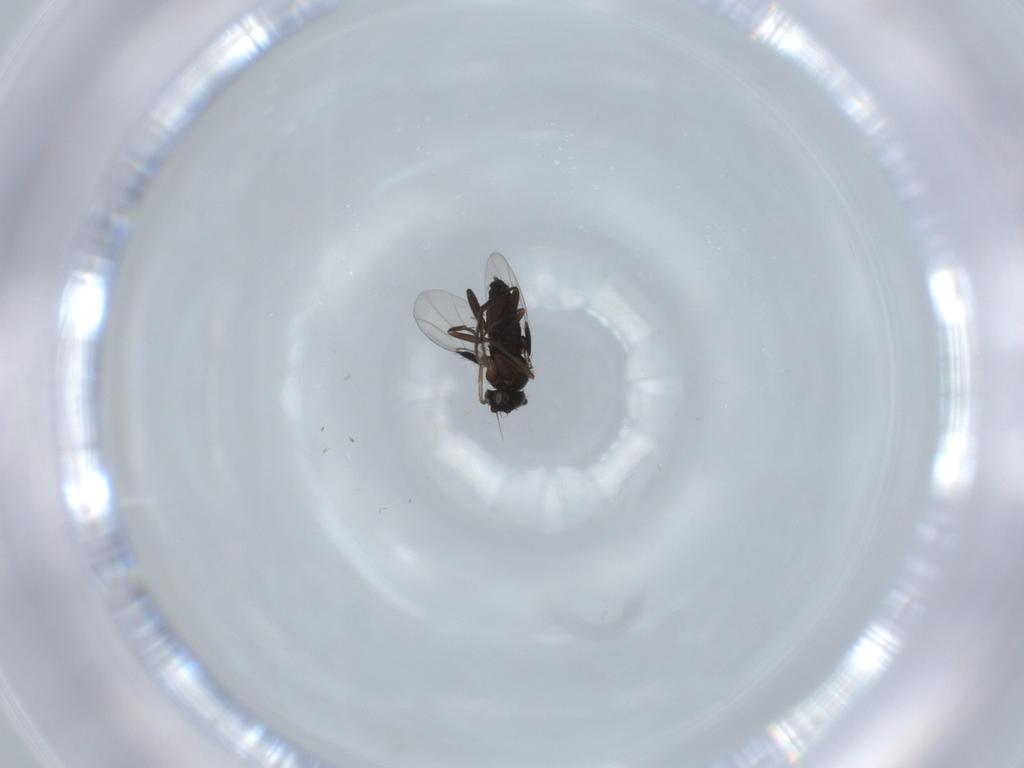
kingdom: Animalia
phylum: Arthropoda
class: Insecta
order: Diptera
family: Phoridae
